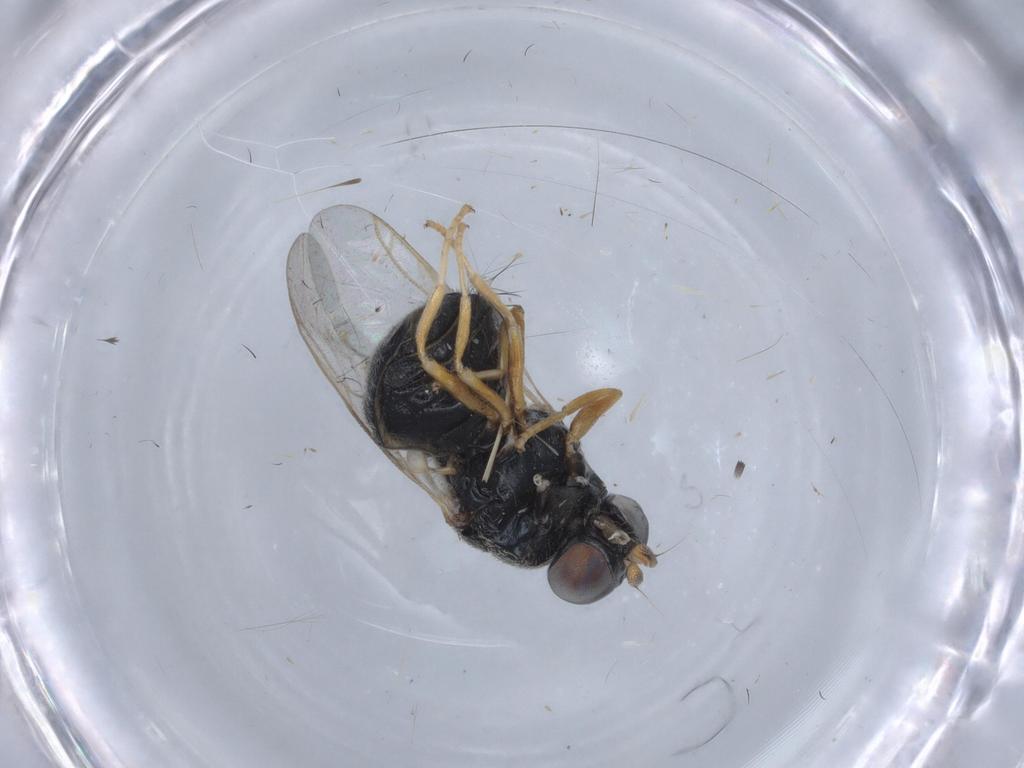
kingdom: Animalia
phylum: Arthropoda
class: Insecta
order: Diptera
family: Stratiomyidae
